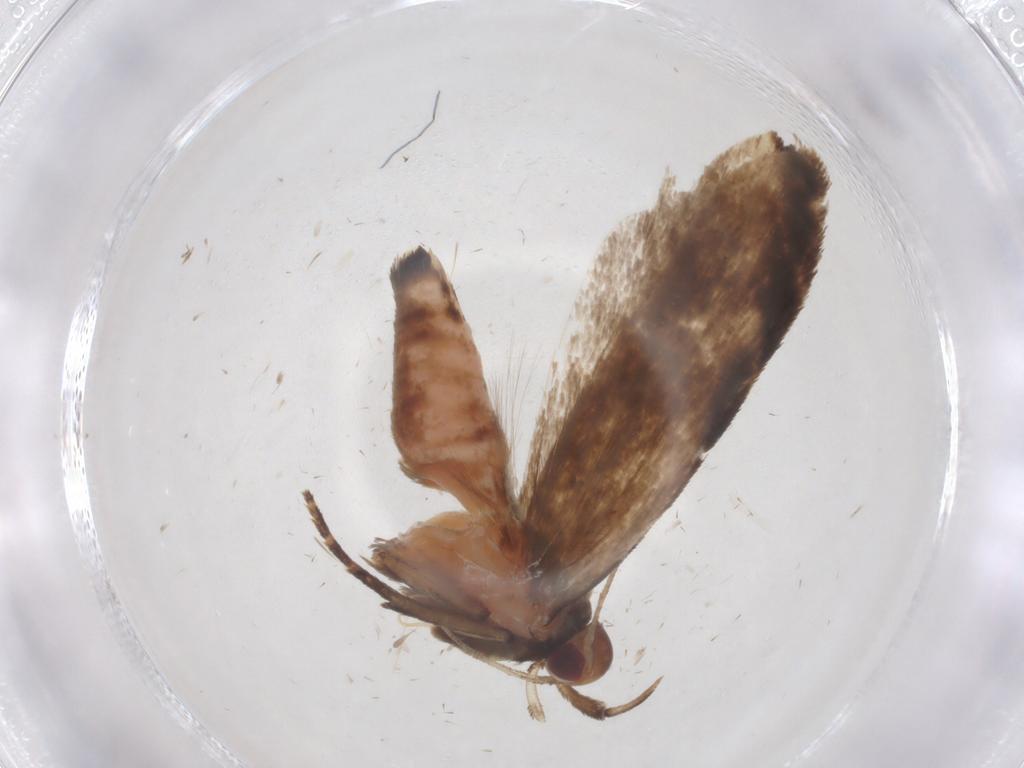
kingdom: Animalia
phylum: Arthropoda
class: Insecta
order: Lepidoptera
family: Gelechiidae
